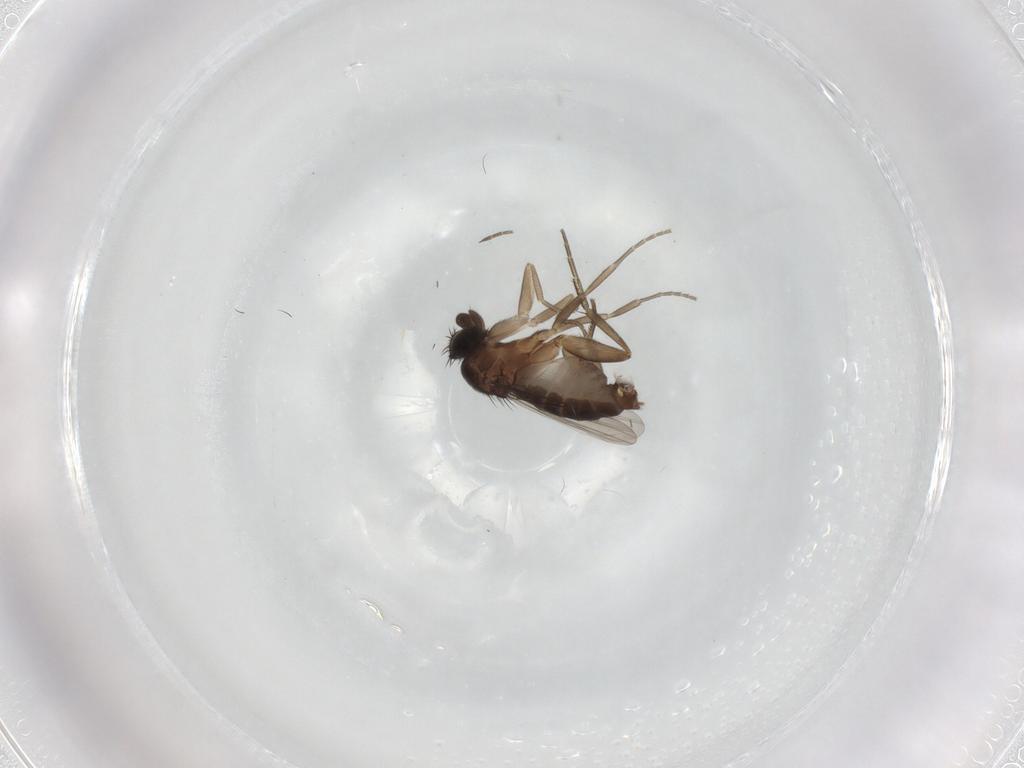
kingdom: Animalia
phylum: Arthropoda
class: Insecta
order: Diptera
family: Phoridae
